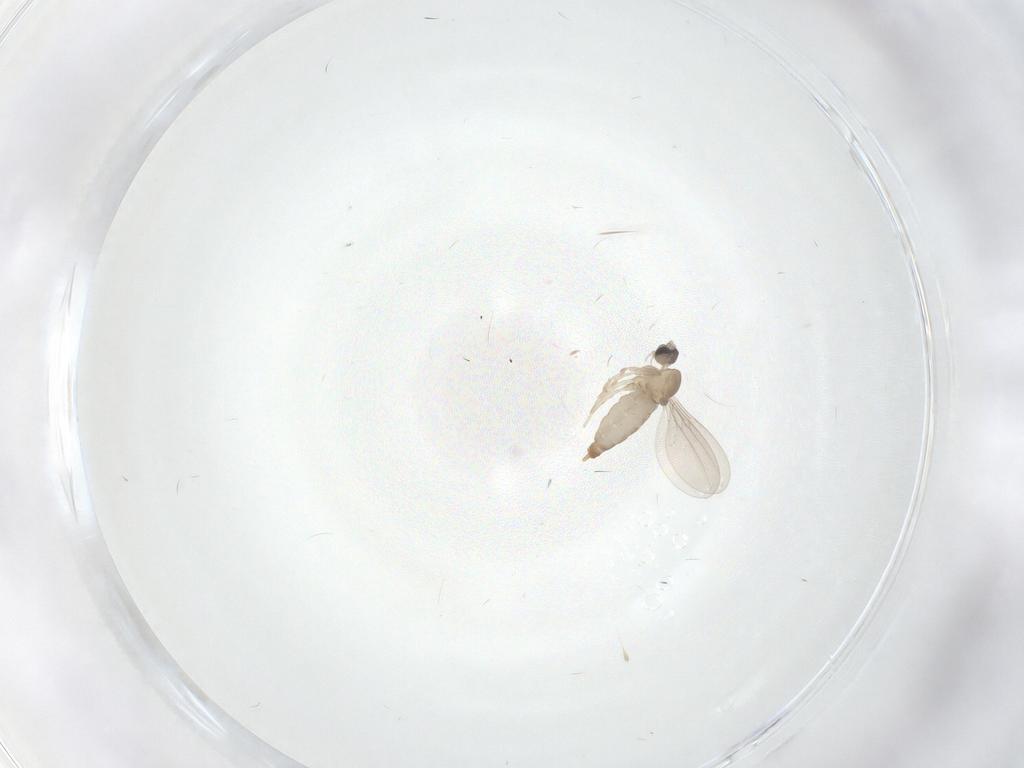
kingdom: Animalia
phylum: Arthropoda
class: Insecta
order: Diptera
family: Cecidomyiidae
